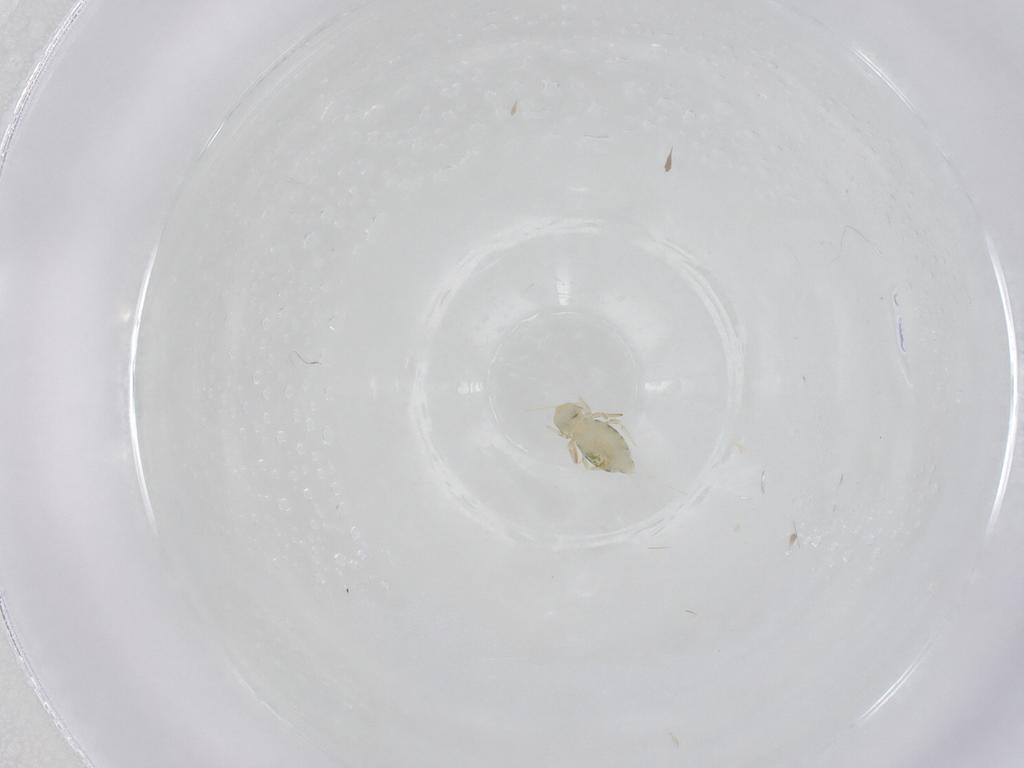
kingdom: Animalia
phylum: Arthropoda
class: Collembola
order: Symphypleona
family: Katiannidae
